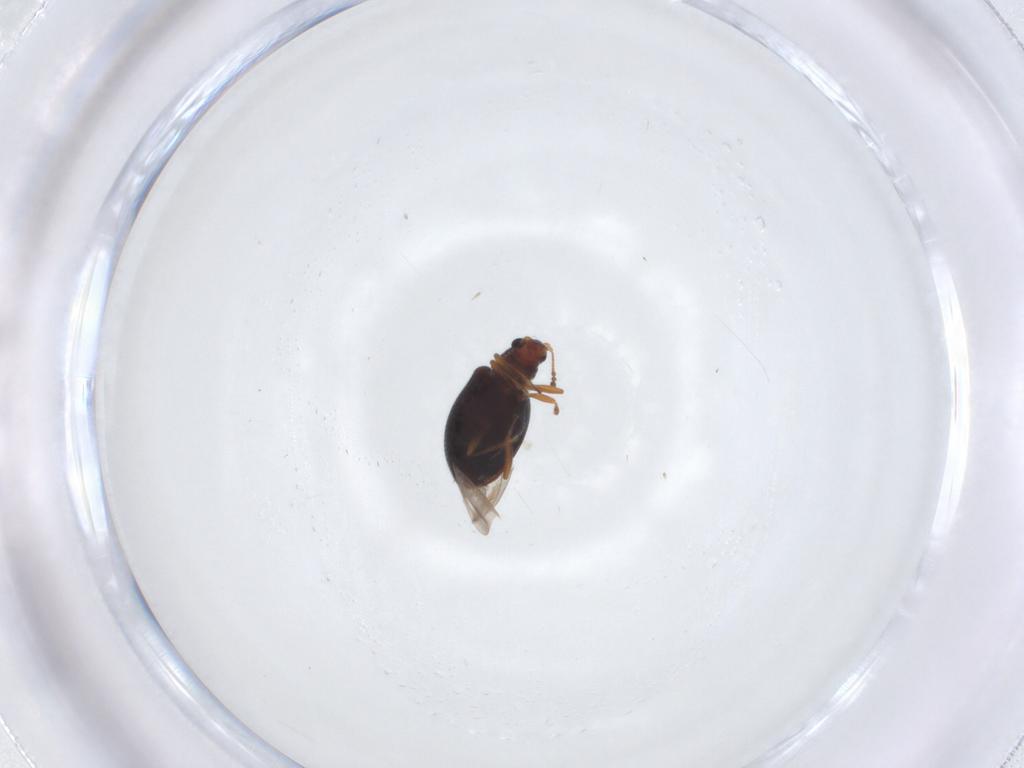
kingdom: Animalia
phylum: Arthropoda
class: Insecta
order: Coleoptera
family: Latridiidae
